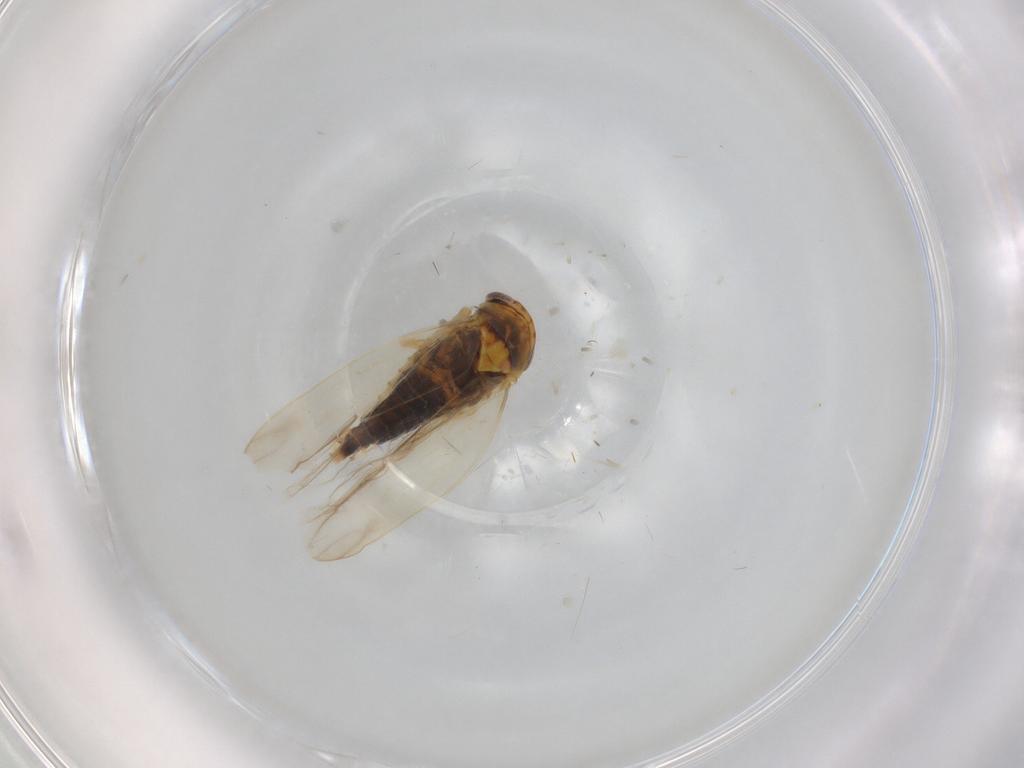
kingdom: Animalia
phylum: Arthropoda
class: Insecta
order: Hemiptera
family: Cicadellidae
